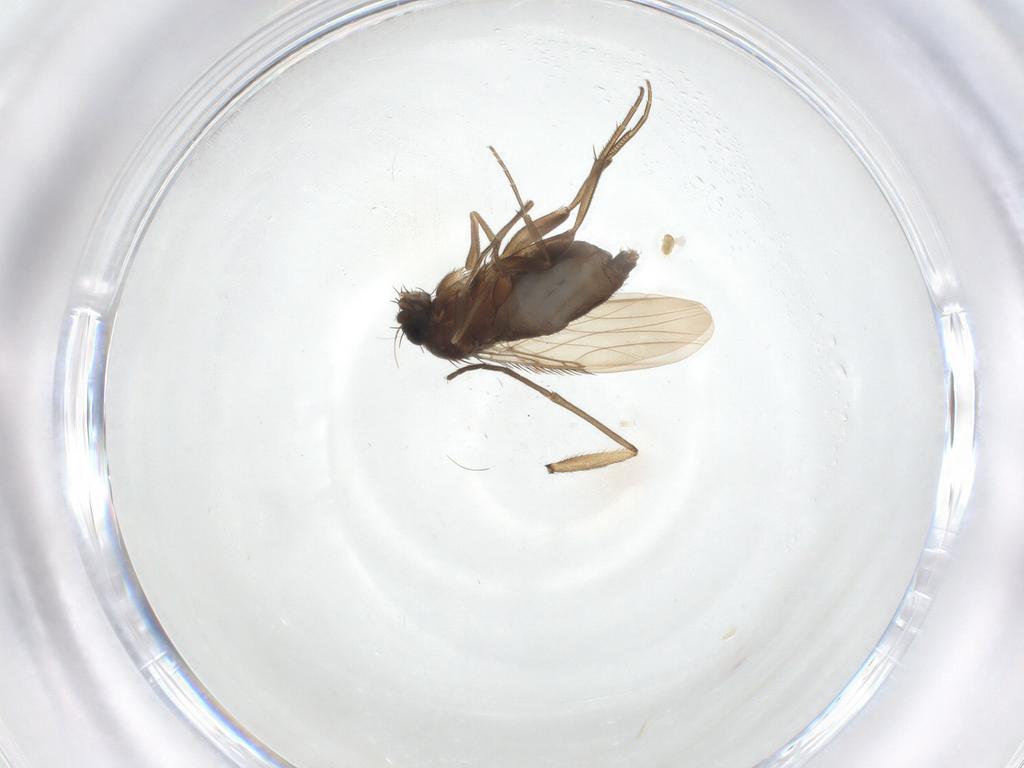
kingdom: Animalia
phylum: Arthropoda
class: Insecta
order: Diptera
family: Phoridae
